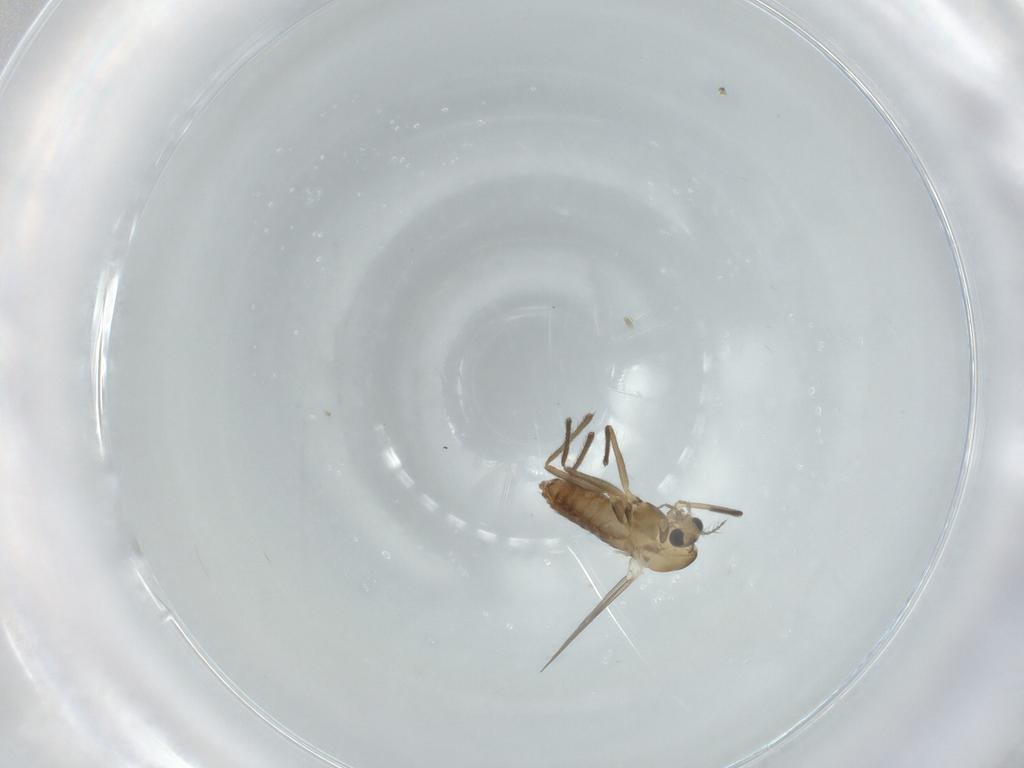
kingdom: Animalia
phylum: Arthropoda
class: Insecta
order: Diptera
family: Chironomidae
